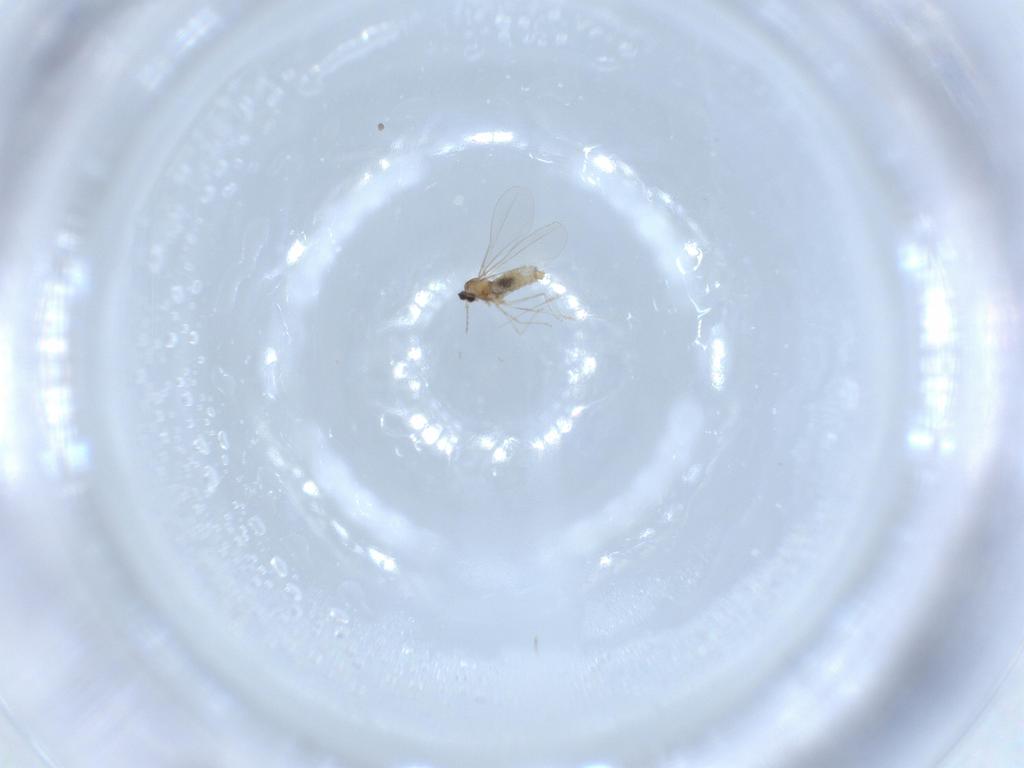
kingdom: Animalia
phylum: Arthropoda
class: Insecta
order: Diptera
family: Cecidomyiidae
